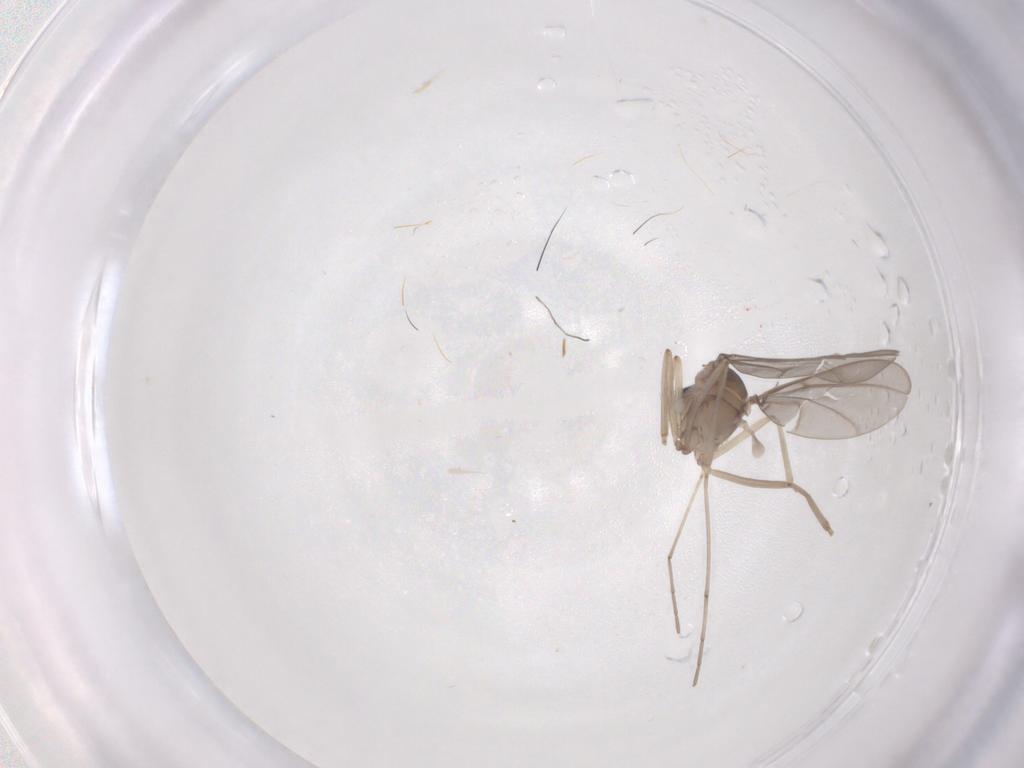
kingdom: Animalia
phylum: Arthropoda
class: Insecta
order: Diptera
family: Cecidomyiidae
